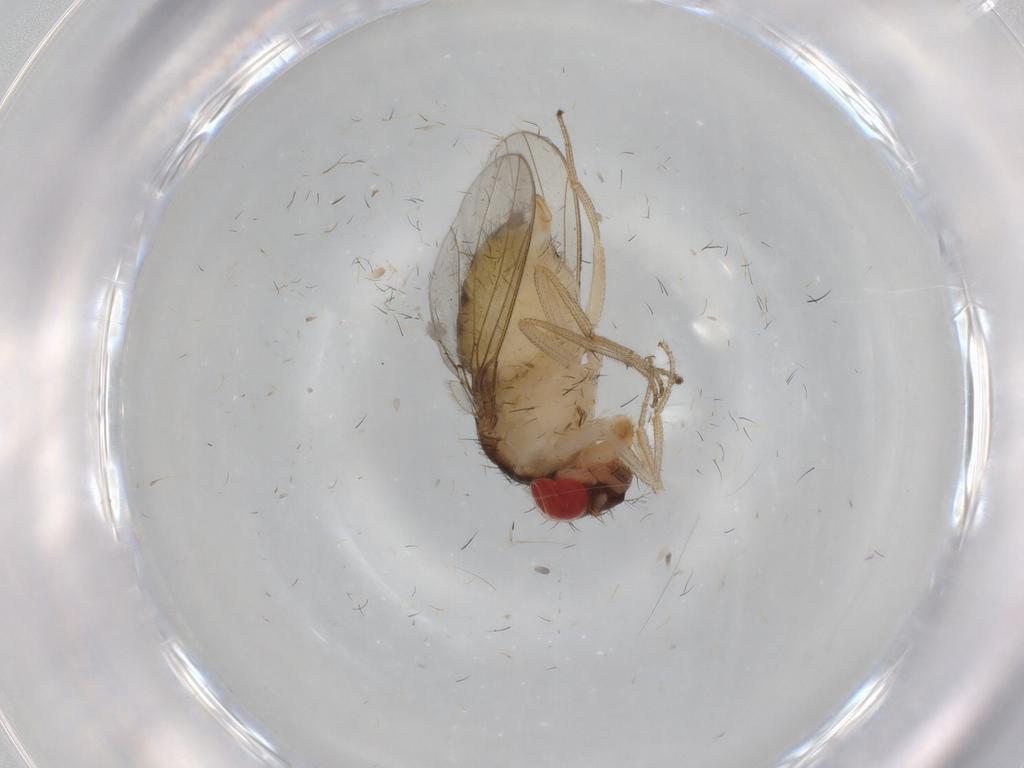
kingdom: Animalia
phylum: Arthropoda
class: Insecta
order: Diptera
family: Drosophilidae
